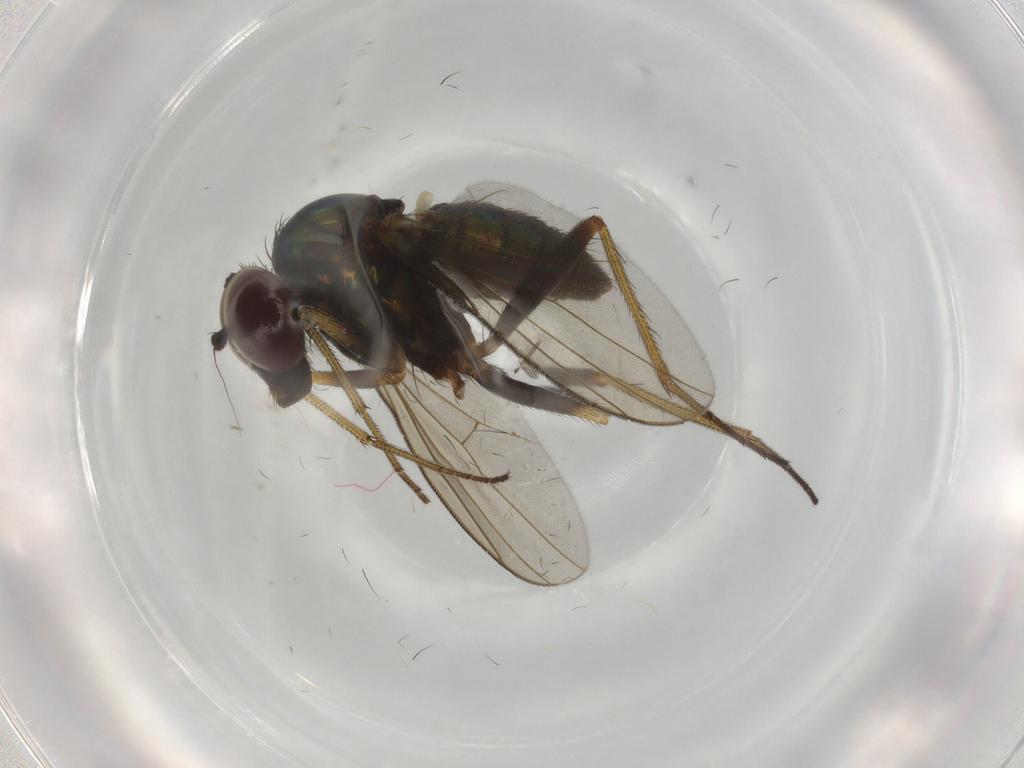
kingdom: Animalia
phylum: Arthropoda
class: Insecta
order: Diptera
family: Dolichopodidae
